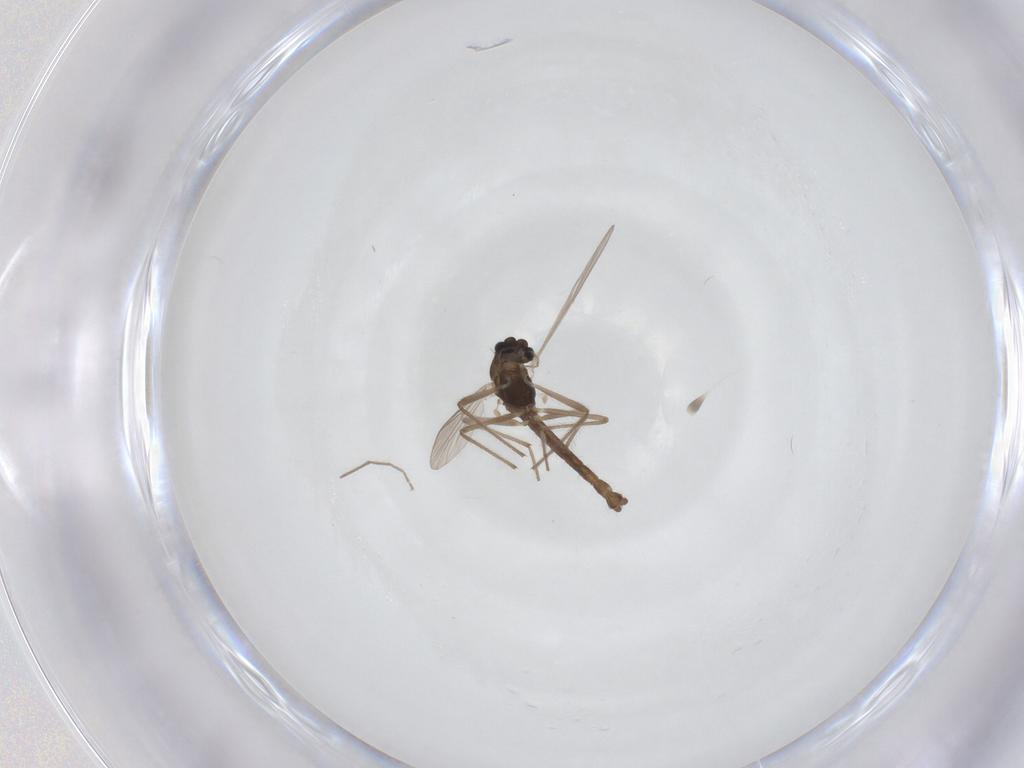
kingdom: Animalia
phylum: Arthropoda
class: Insecta
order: Diptera
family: Chironomidae
